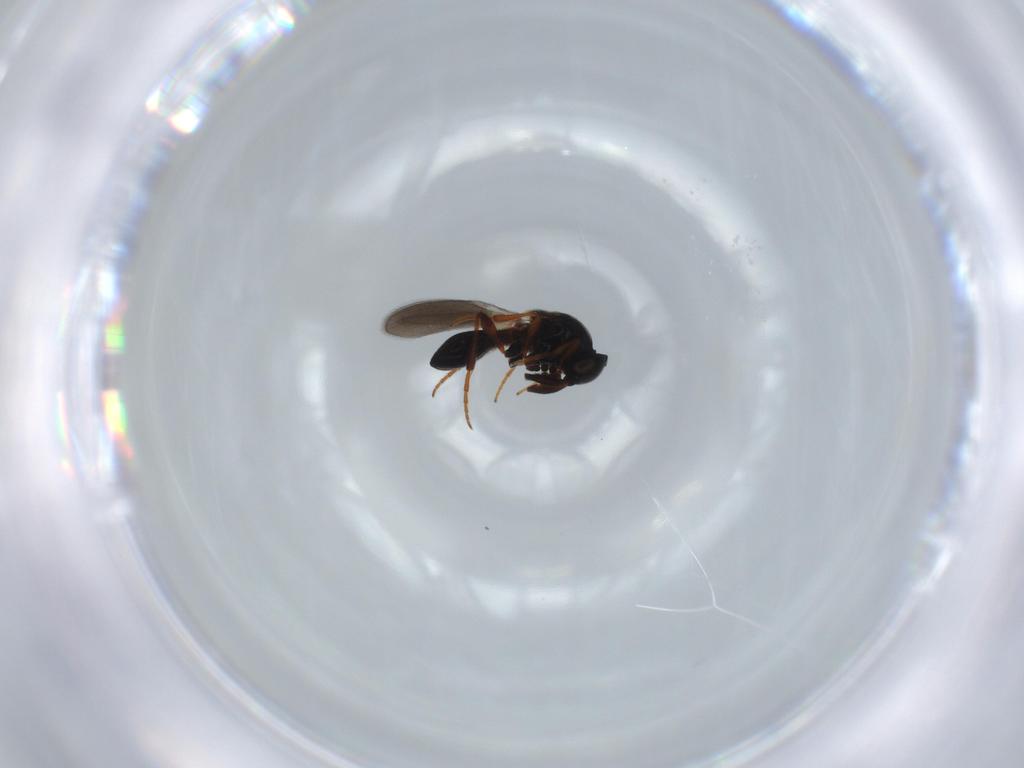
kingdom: Animalia
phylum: Arthropoda
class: Insecta
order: Hymenoptera
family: Platygastridae
